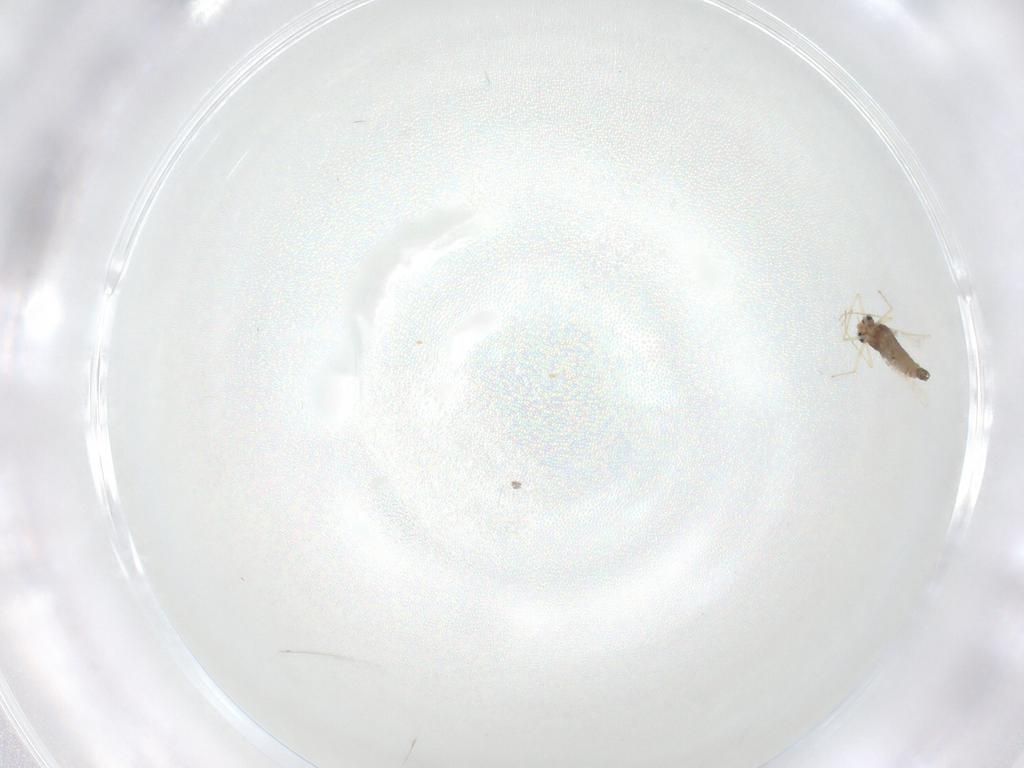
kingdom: Animalia
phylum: Arthropoda
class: Insecta
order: Diptera
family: Chironomidae
